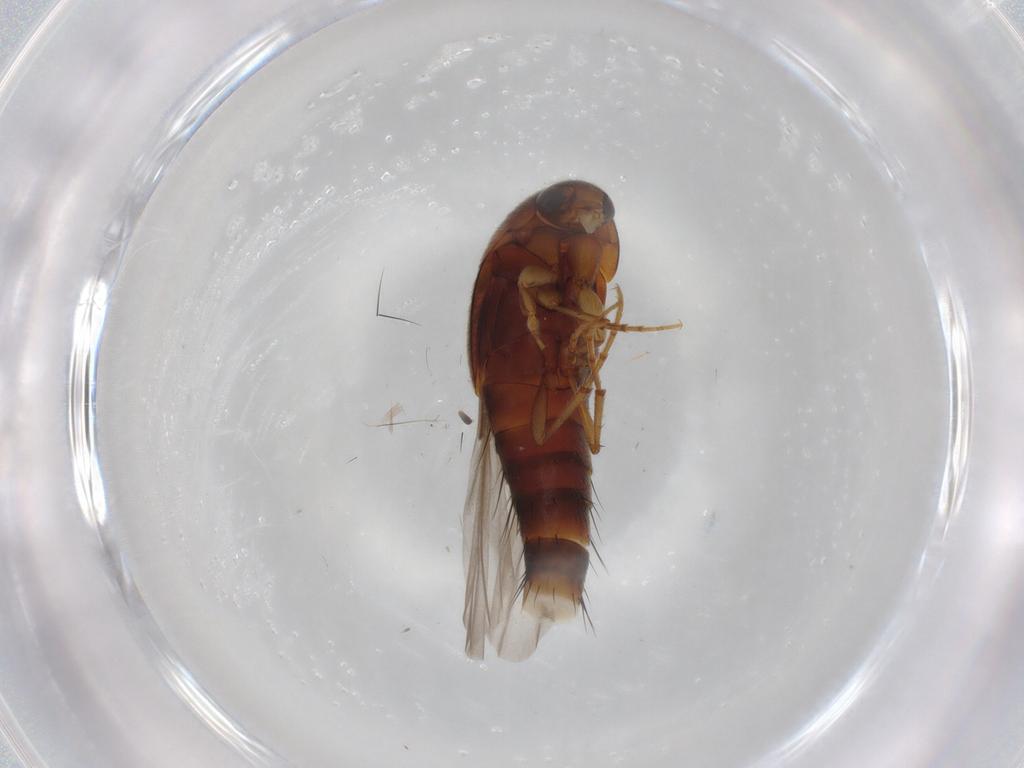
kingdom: Animalia
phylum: Arthropoda
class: Insecta
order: Coleoptera
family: Staphylinidae
